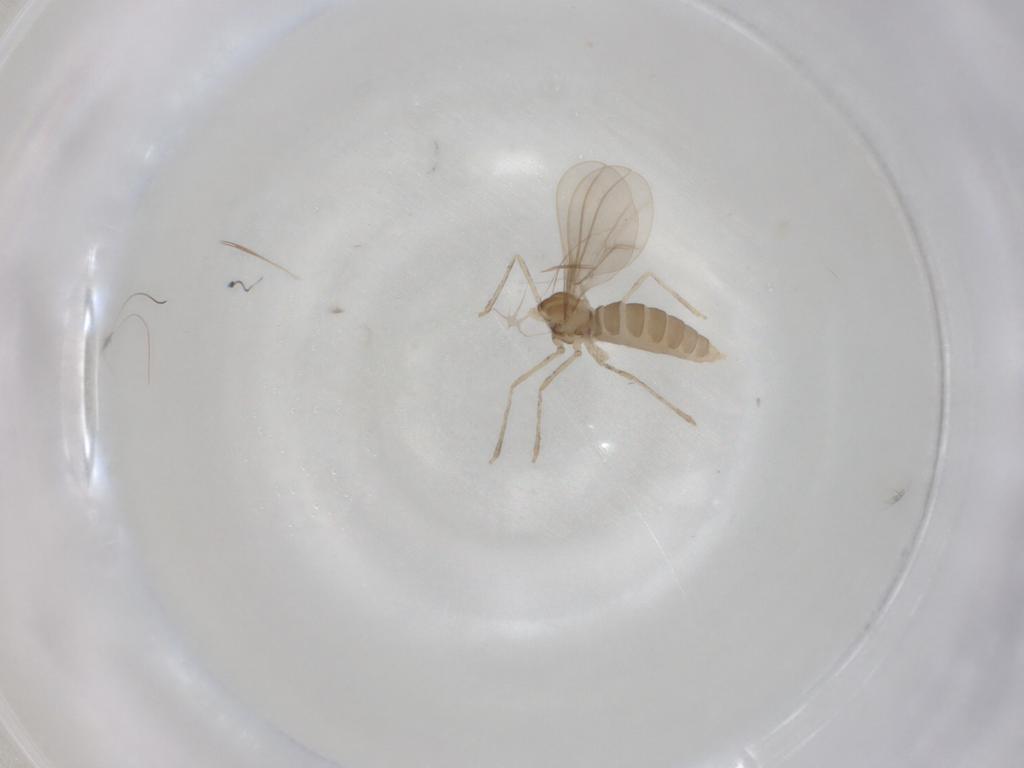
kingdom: Animalia
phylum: Arthropoda
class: Insecta
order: Diptera
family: Cecidomyiidae
